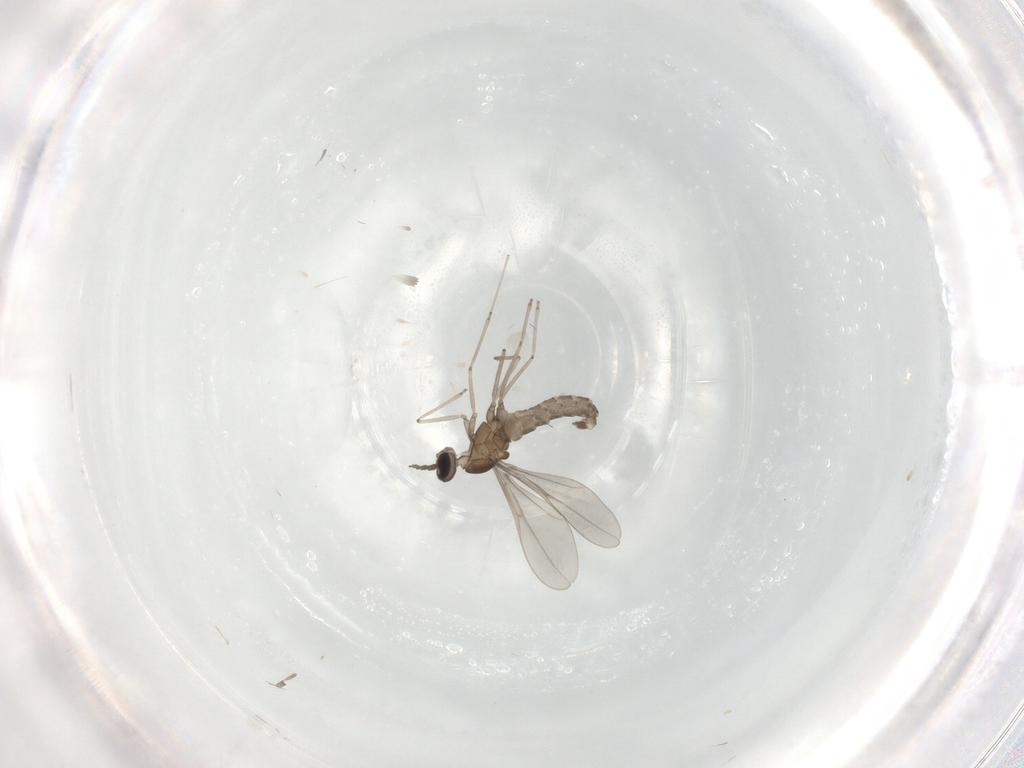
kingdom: Animalia
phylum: Arthropoda
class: Insecta
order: Diptera
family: Cecidomyiidae
